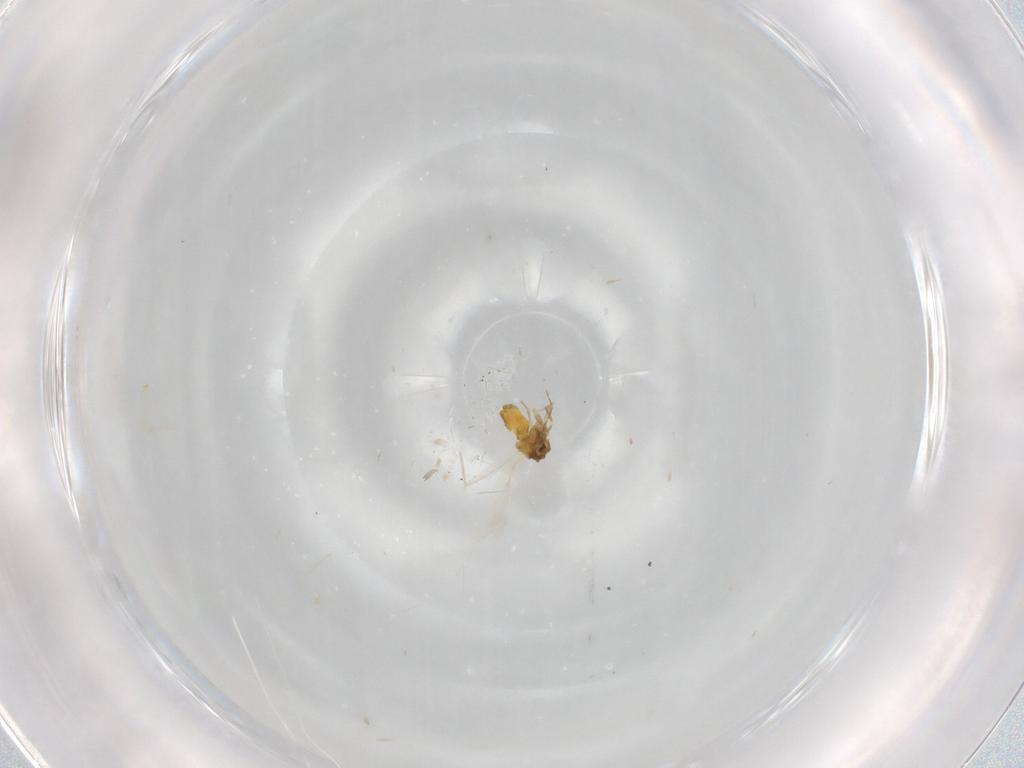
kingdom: Animalia
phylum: Arthropoda
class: Insecta
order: Hemiptera
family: Aleyrodidae
